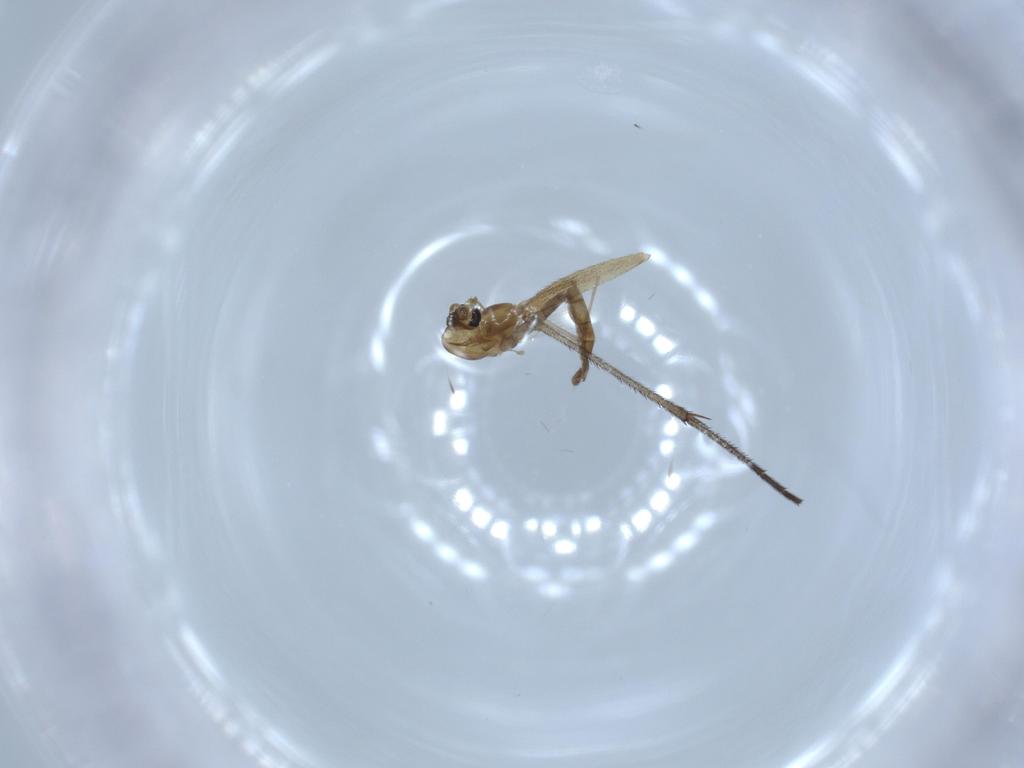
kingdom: Animalia
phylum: Arthropoda
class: Insecta
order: Diptera
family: Chironomidae
